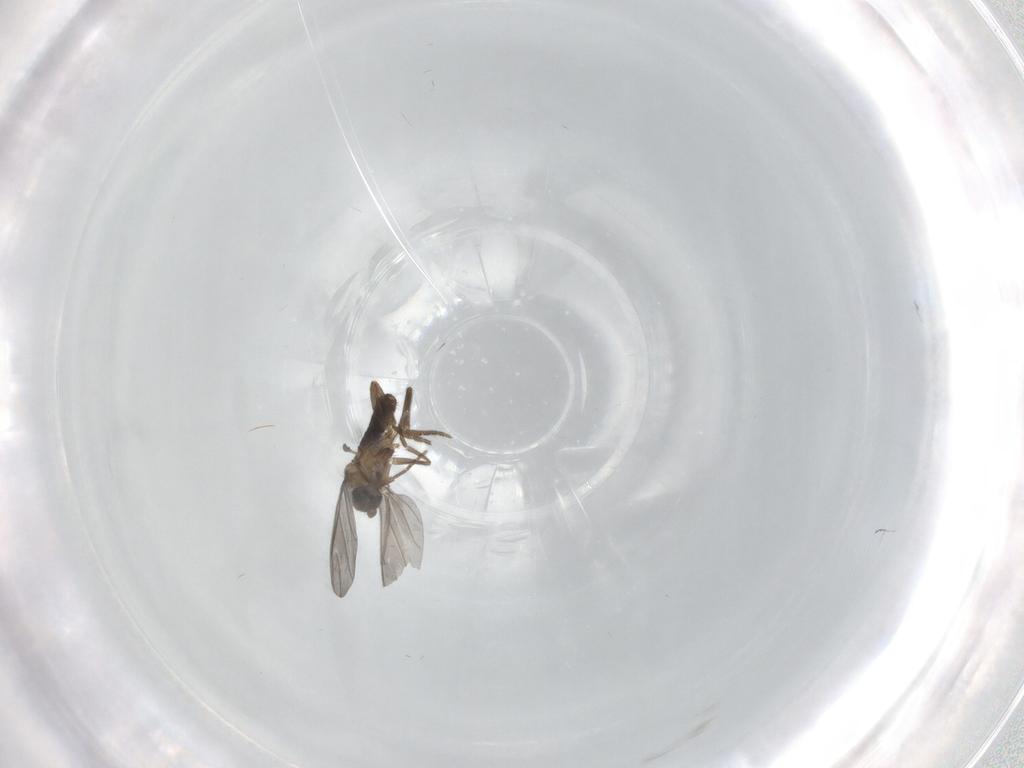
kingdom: Animalia
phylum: Arthropoda
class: Insecta
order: Diptera
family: Cecidomyiidae
